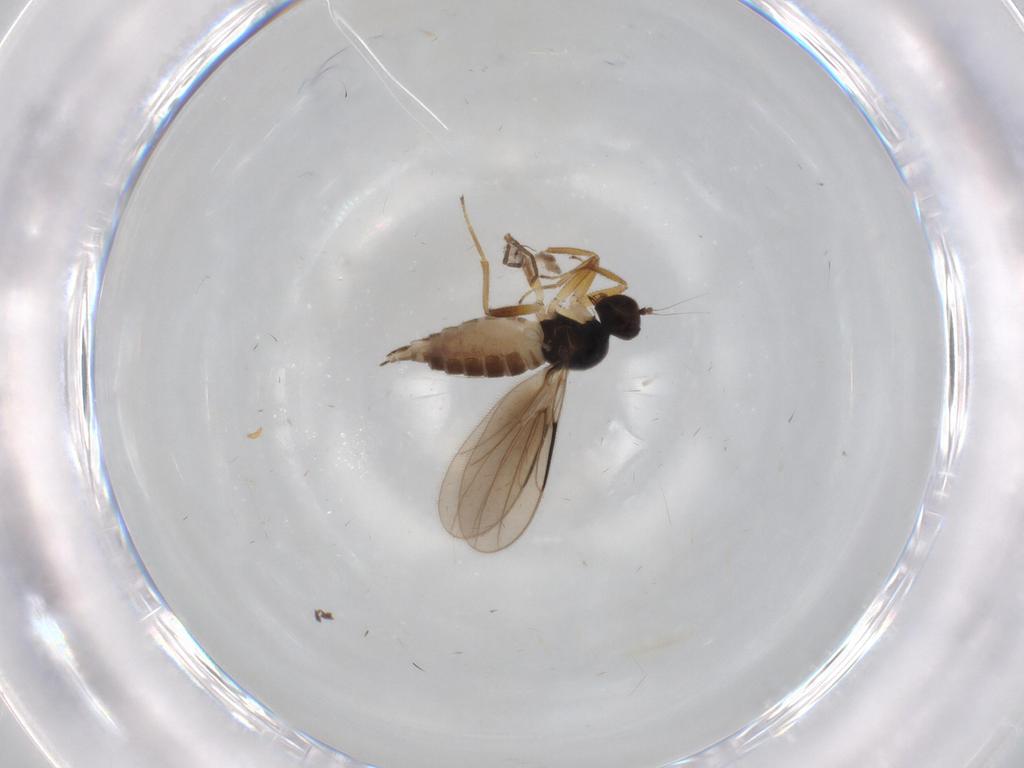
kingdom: Animalia
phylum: Arthropoda
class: Insecta
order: Diptera
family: Hybotidae
